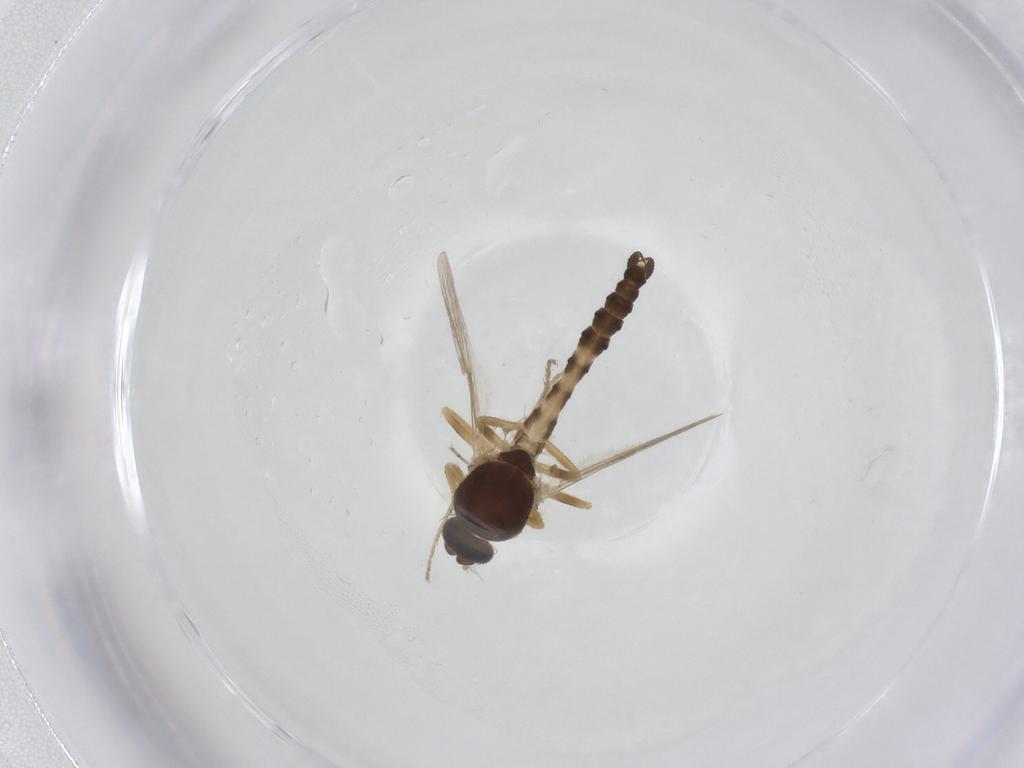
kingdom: Animalia
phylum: Arthropoda
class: Insecta
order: Diptera
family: Ceratopogonidae
